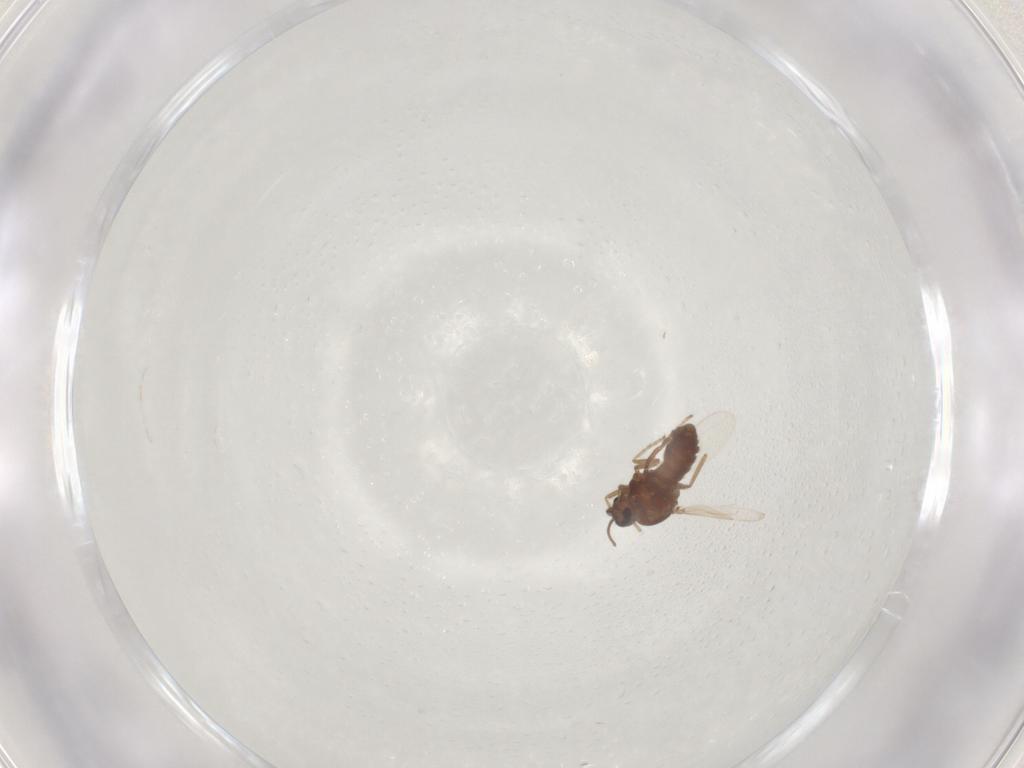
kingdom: Animalia
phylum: Arthropoda
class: Insecta
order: Diptera
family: Chironomidae
